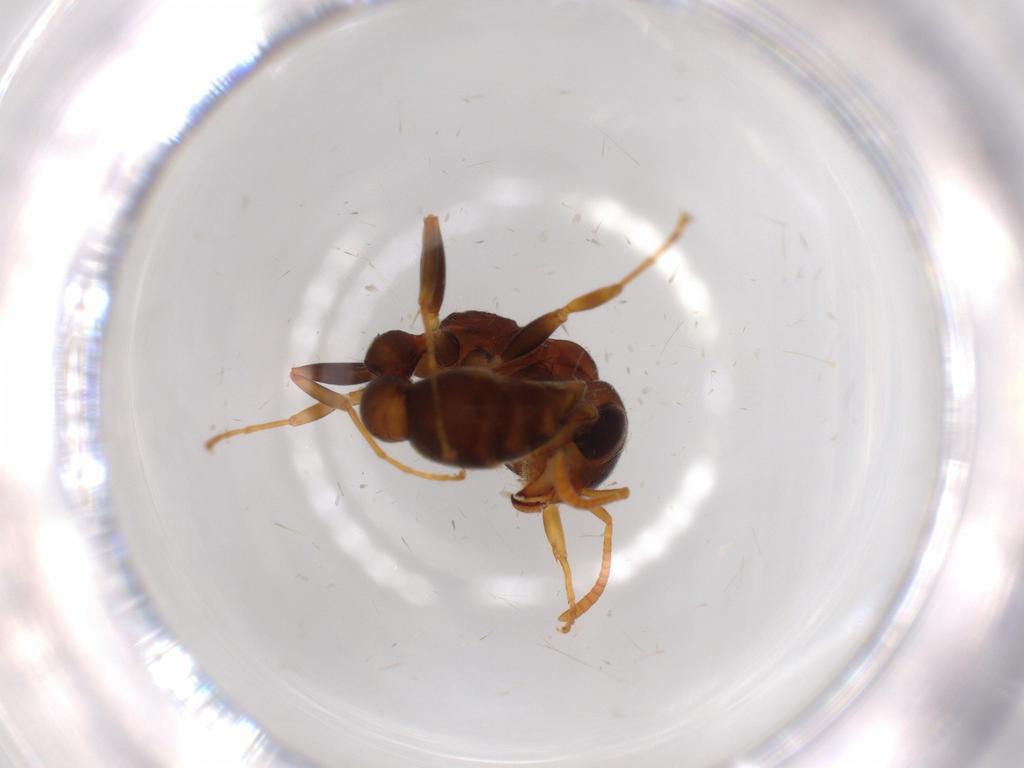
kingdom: Animalia
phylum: Arthropoda
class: Insecta
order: Hymenoptera
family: Formicidae
